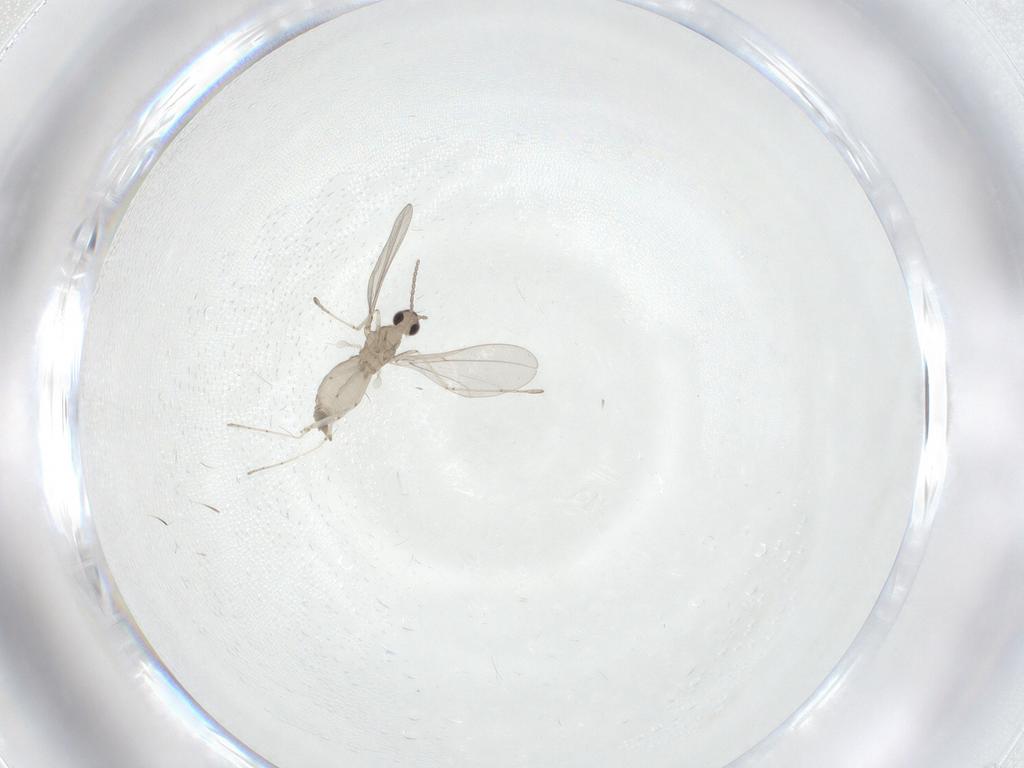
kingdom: Animalia
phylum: Arthropoda
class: Insecta
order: Diptera
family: Cecidomyiidae
